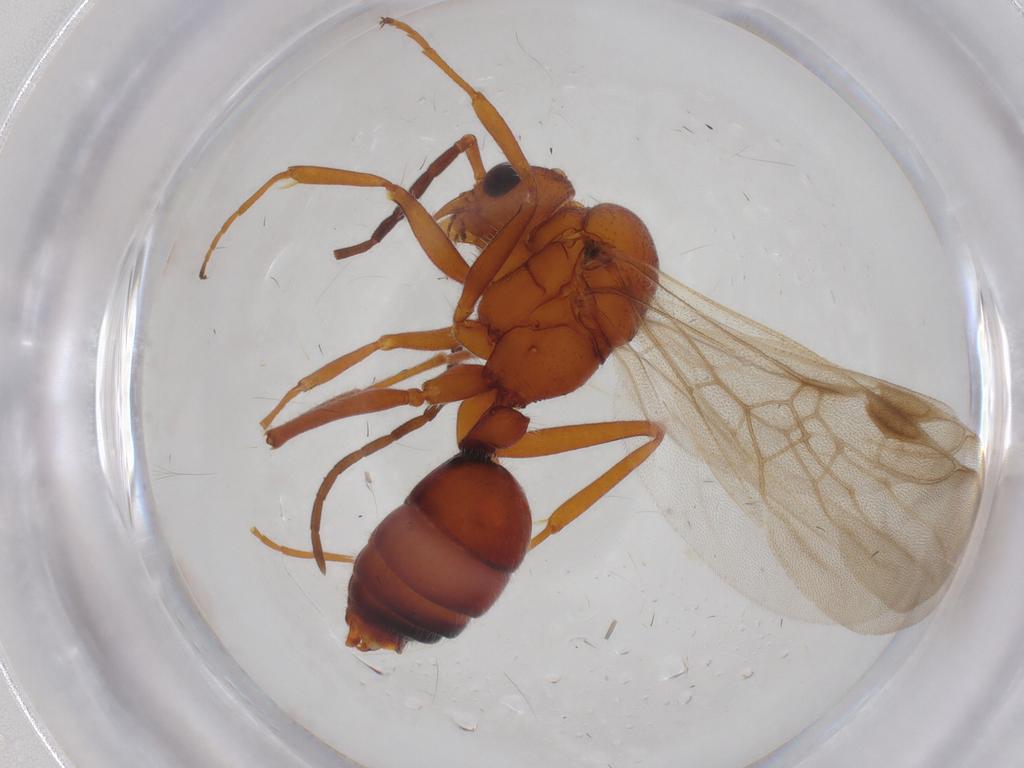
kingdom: Animalia
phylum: Arthropoda
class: Insecta
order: Hymenoptera
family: Formicidae
